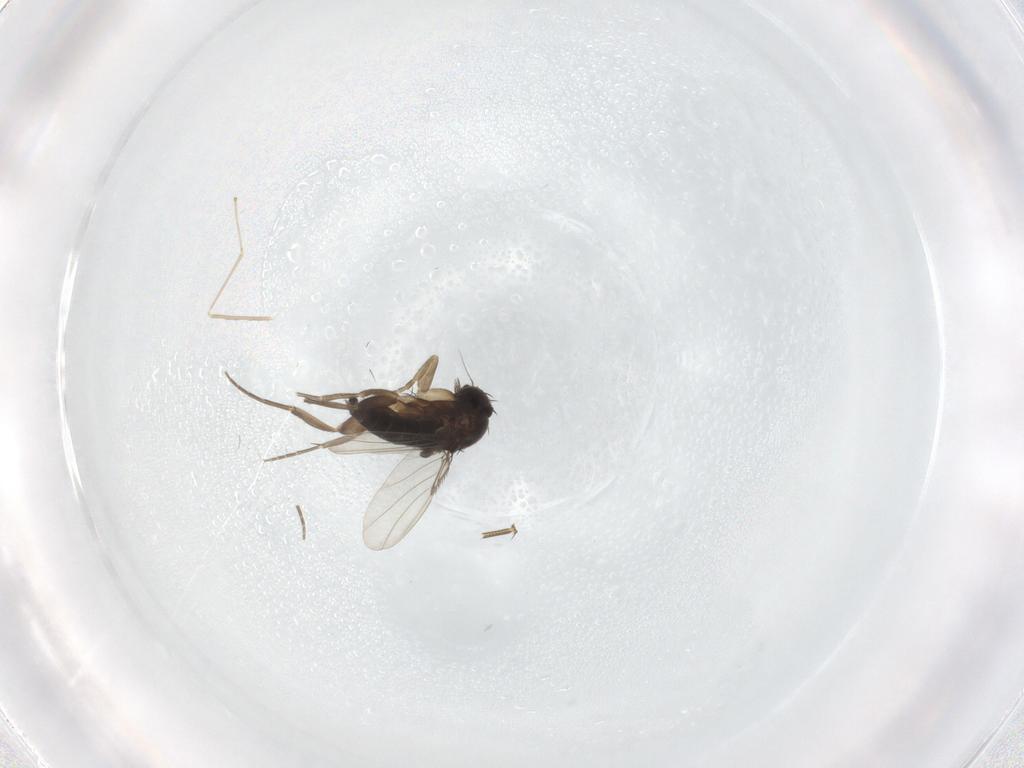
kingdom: Animalia
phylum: Arthropoda
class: Insecta
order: Diptera
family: Phoridae
